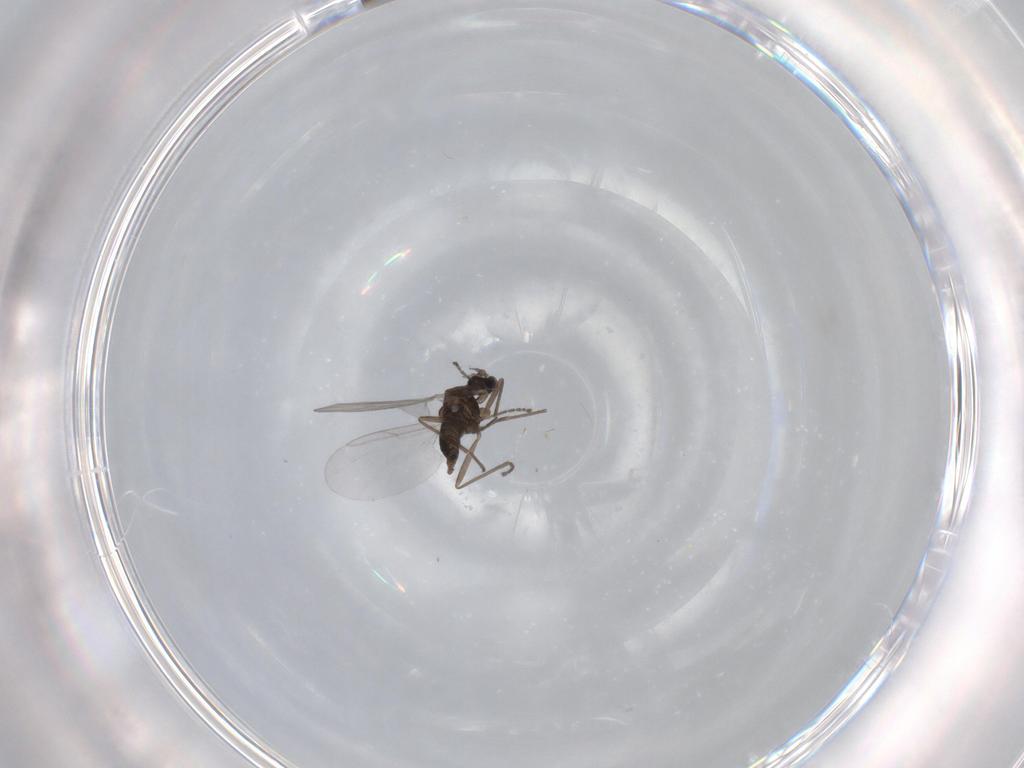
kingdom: Animalia
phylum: Arthropoda
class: Insecta
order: Diptera
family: Cecidomyiidae
